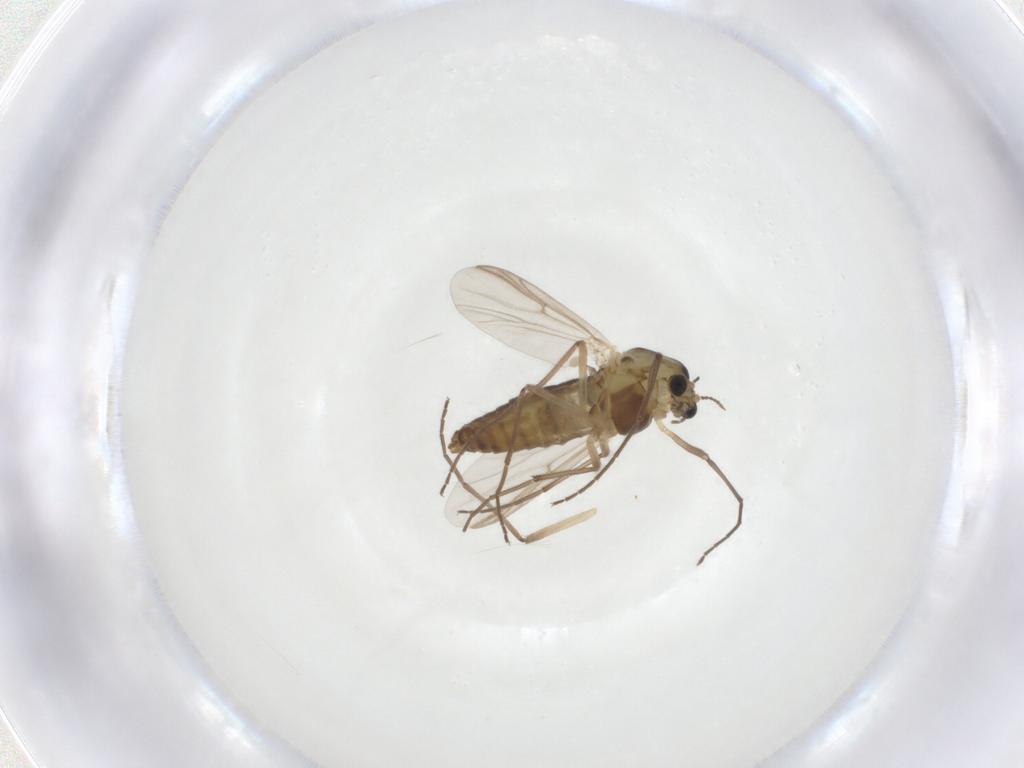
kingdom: Animalia
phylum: Arthropoda
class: Insecta
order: Diptera
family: Chironomidae
